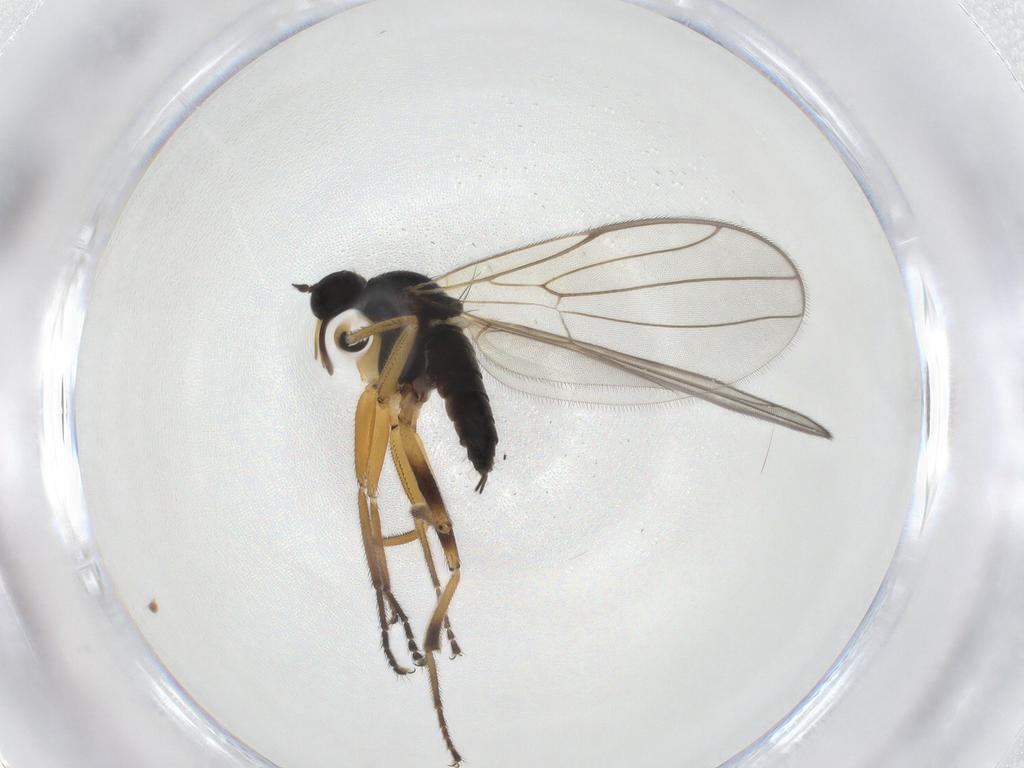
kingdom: Animalia
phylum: Arthropoda
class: Insecta
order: Diptera
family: Hybotidae
